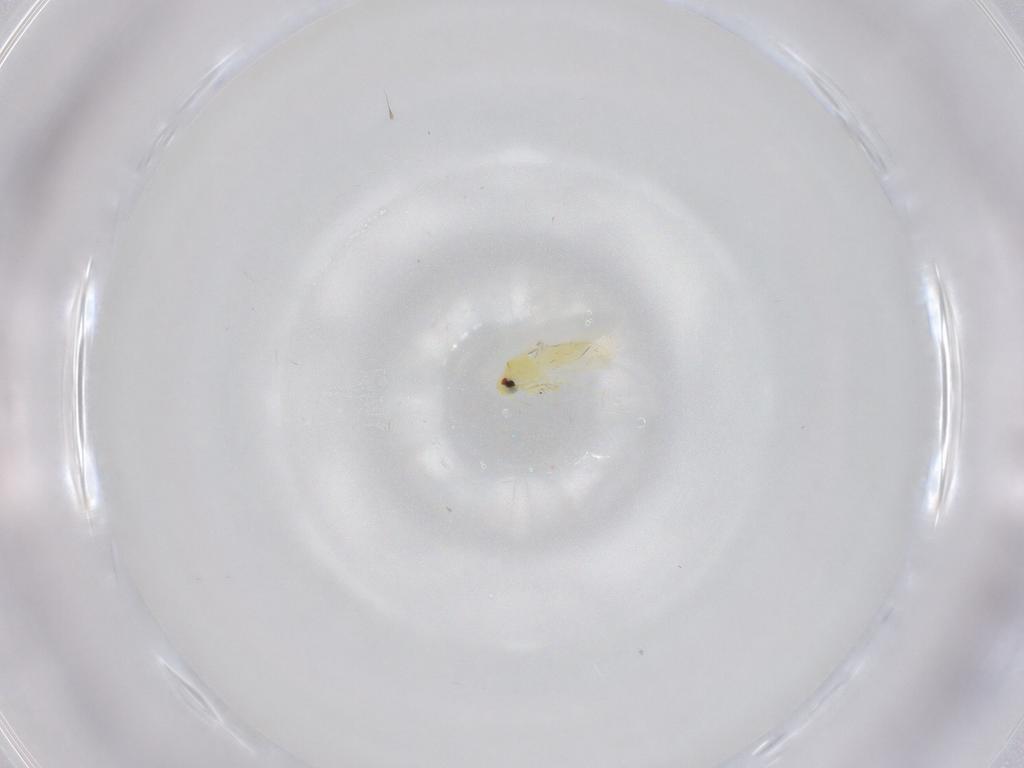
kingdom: Animalia
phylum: Arthropoda
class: Insecta
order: Hemiptera
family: Aleyrodidae
